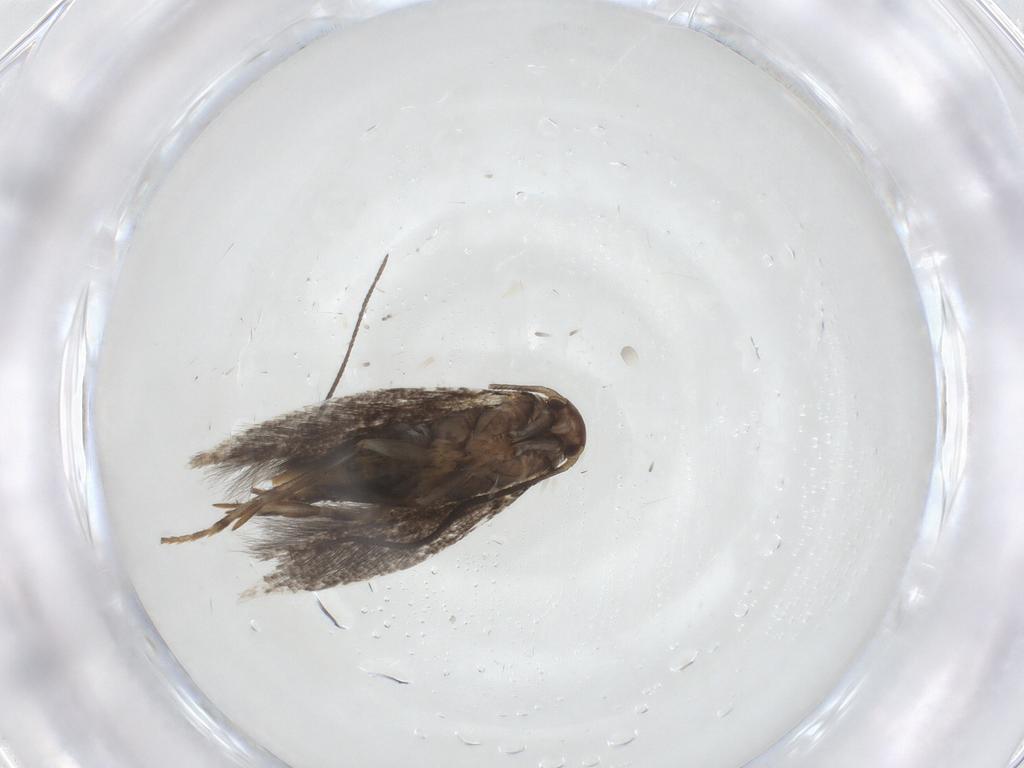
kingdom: Animalia
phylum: Arthropoda
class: Insecta
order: Lepidoptera
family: Elachistidae
